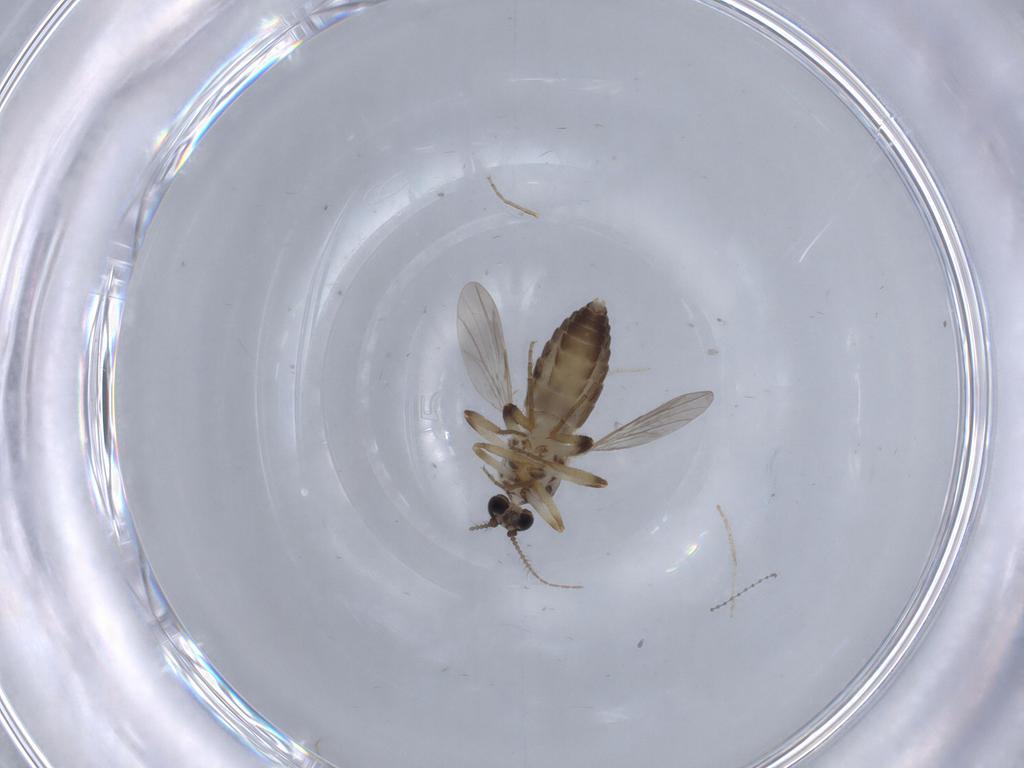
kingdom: Animalia
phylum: Arthropoda
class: Insecta
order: Diptera
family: Ceratopogonidae
